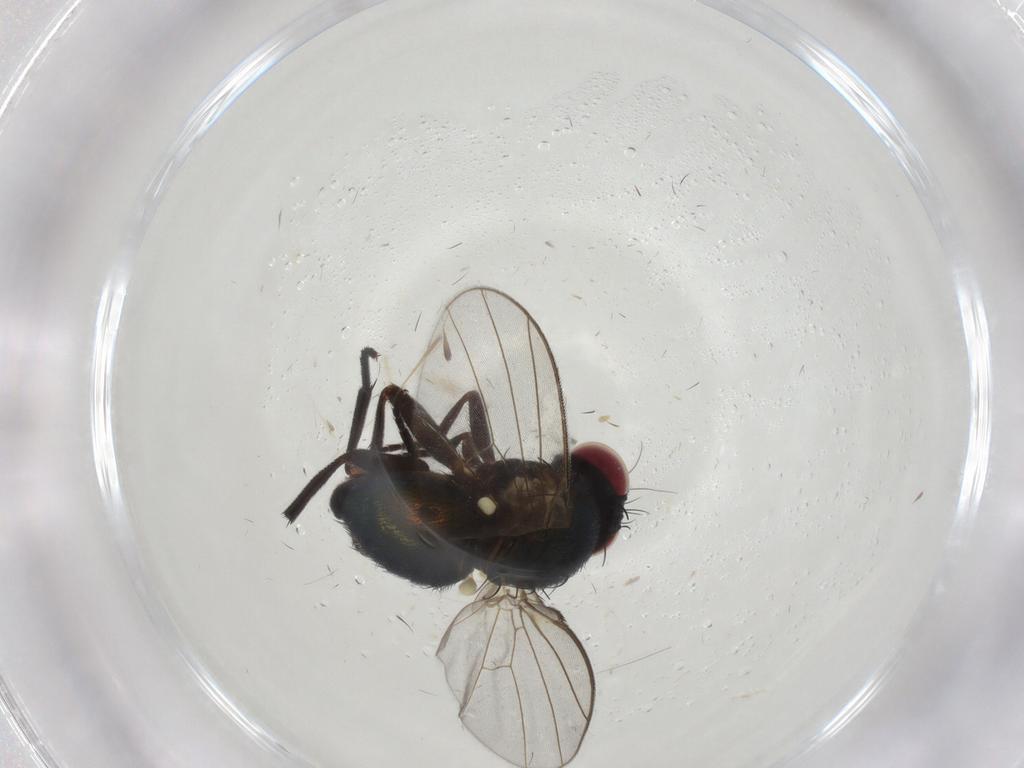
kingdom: Animalia
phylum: Arthropoda
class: Insecta
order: Diptera
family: Agromyzidae
